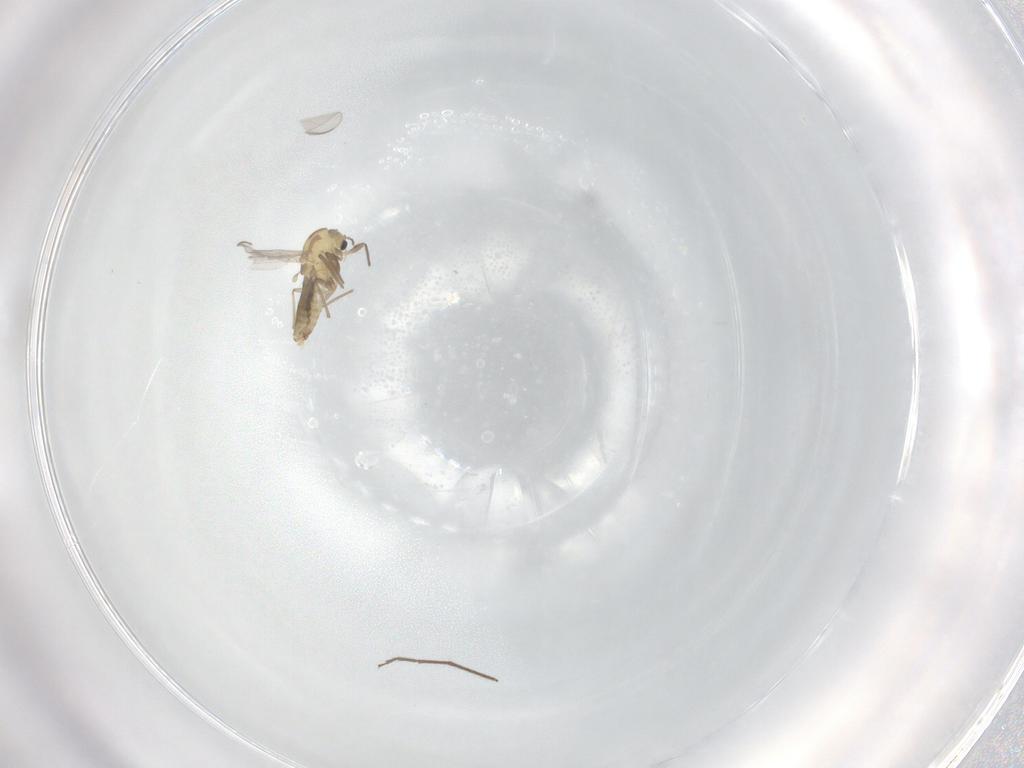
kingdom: Animalia
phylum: Arthropoda
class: Insecta
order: Diptera
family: Chironomidae
